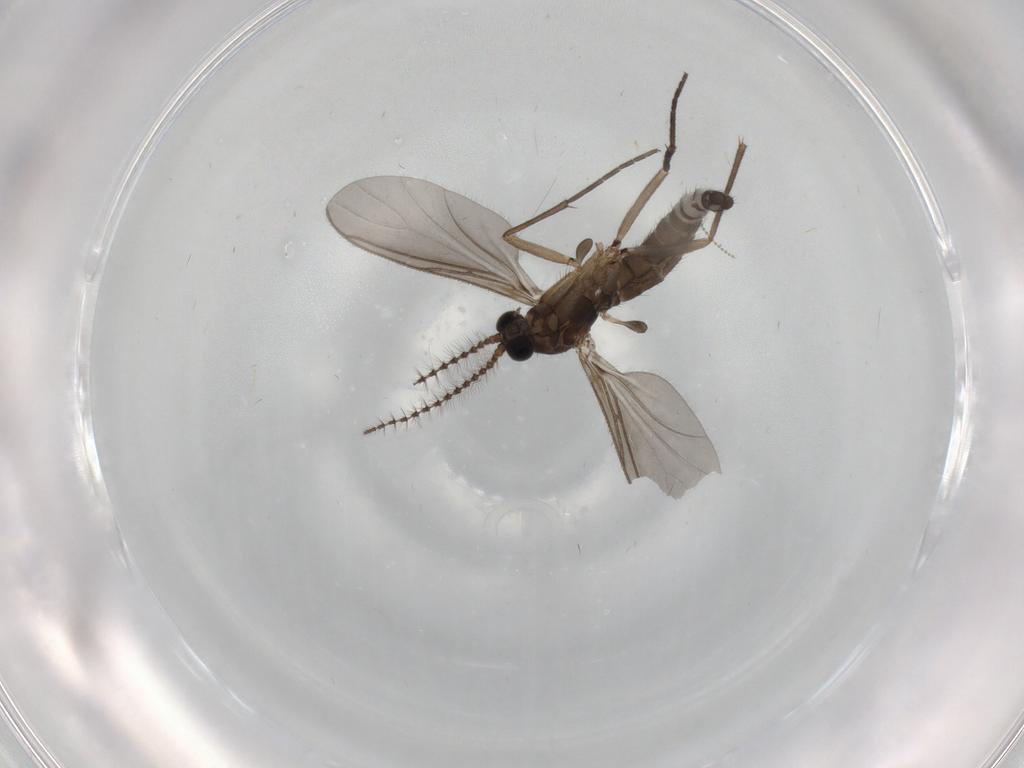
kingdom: Animalia
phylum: Arthropoda
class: Insecta
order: Diptera
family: Sciaridae
